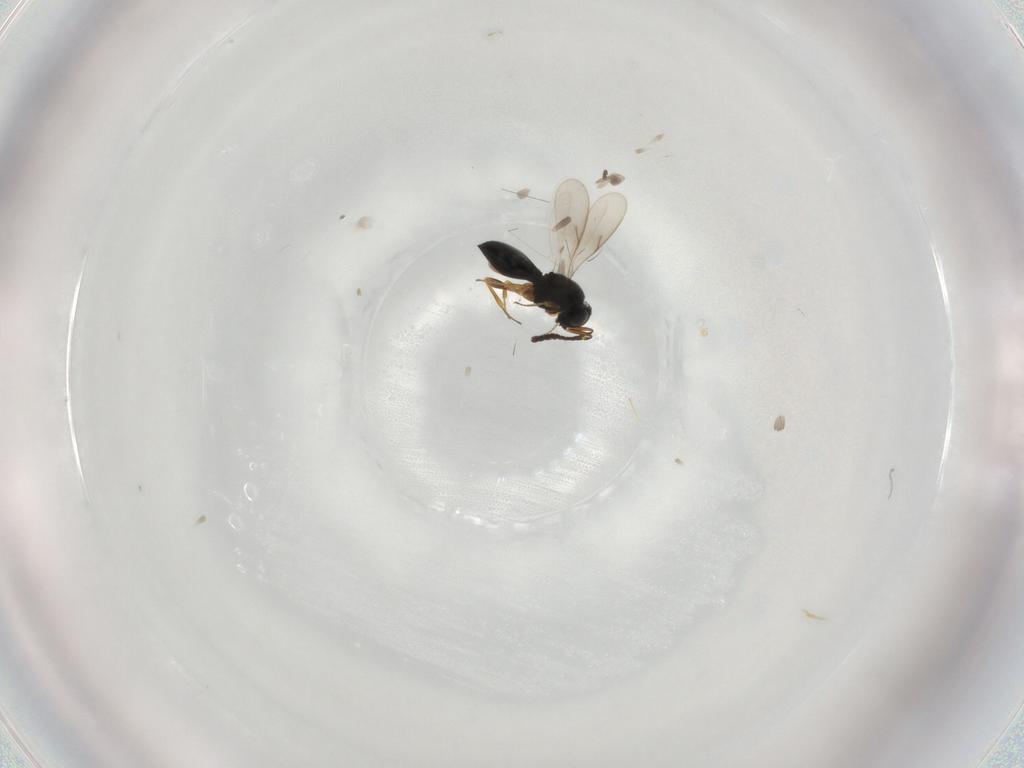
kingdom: Animalia
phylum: Arthropoda
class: Insecta
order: Hymenoptera
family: Scelionidae
